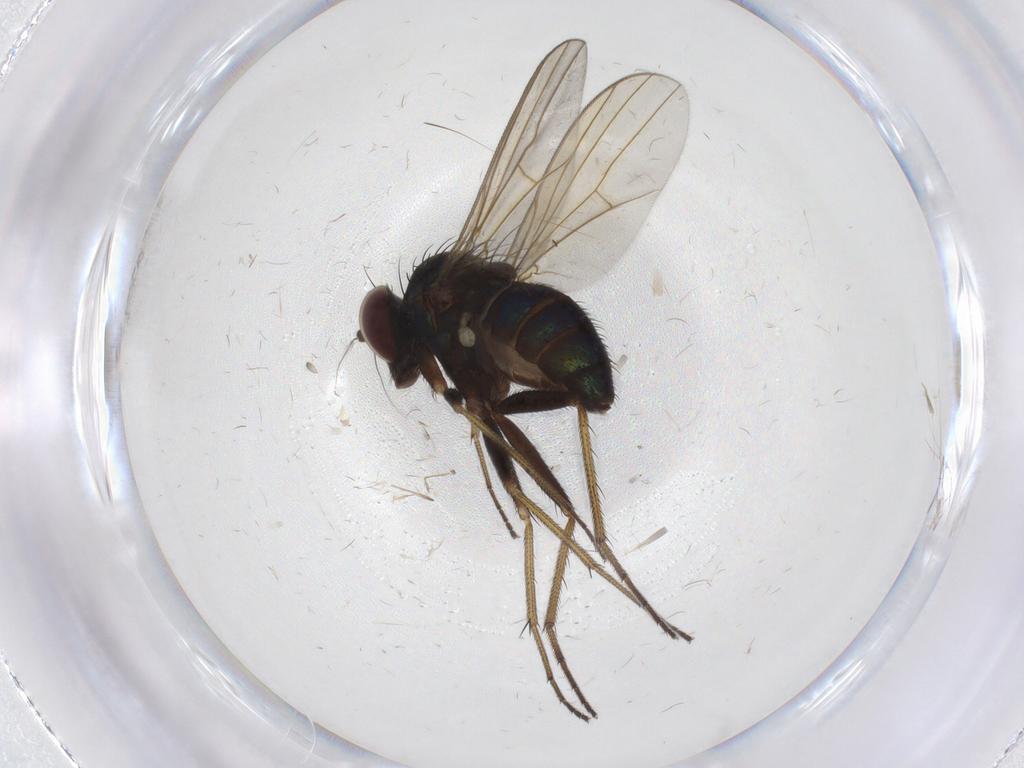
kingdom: Animalia
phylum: Arthropoda
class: Insecta
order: Diptera
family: Dolichopodidae
